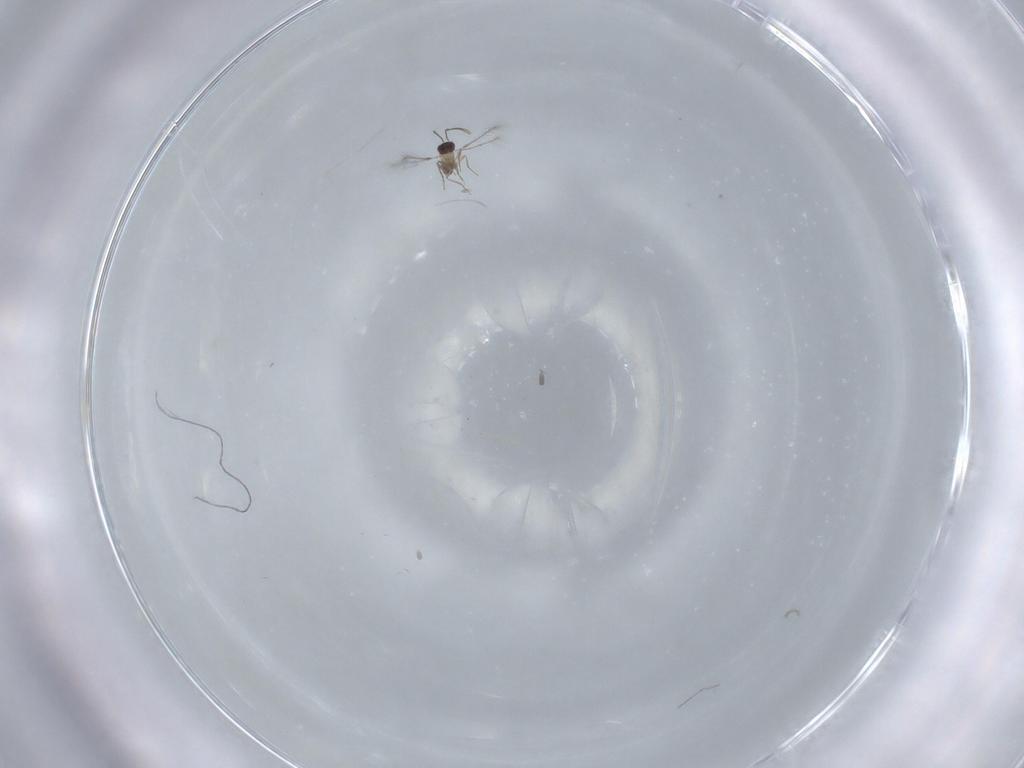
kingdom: Animalia
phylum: Arthropoda
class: Insecta
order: Hymenoptera
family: Mymaridae
